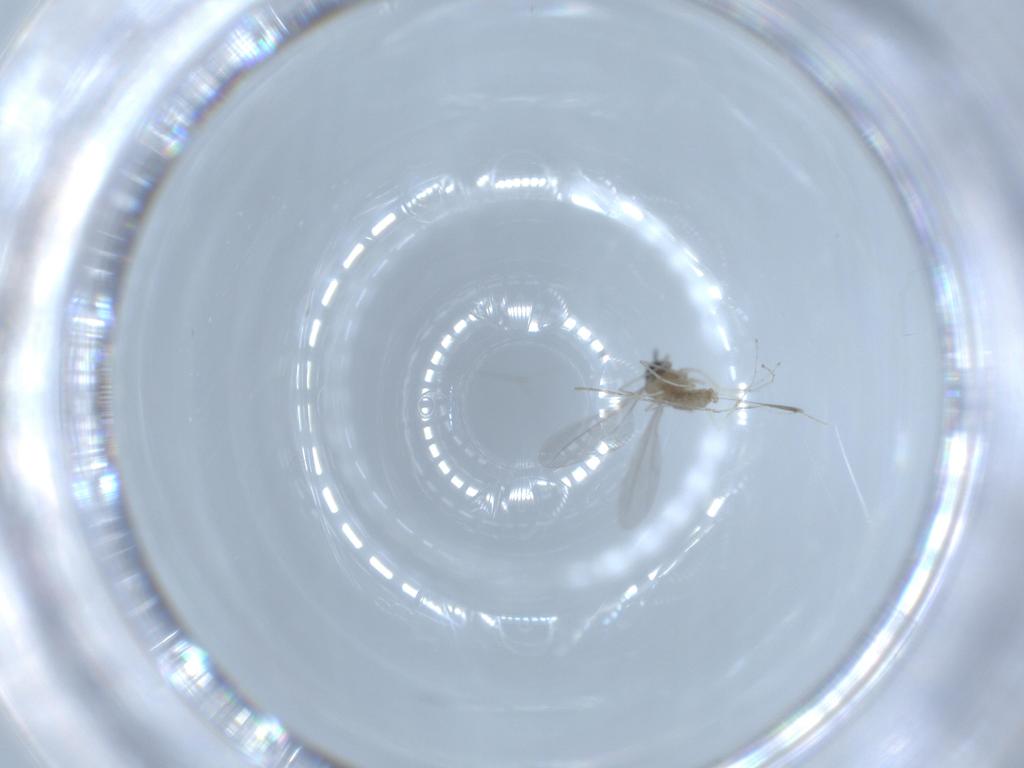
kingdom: Animalia
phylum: Arthropoda
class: Insecta
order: Diptera
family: Cecidomyiidae
